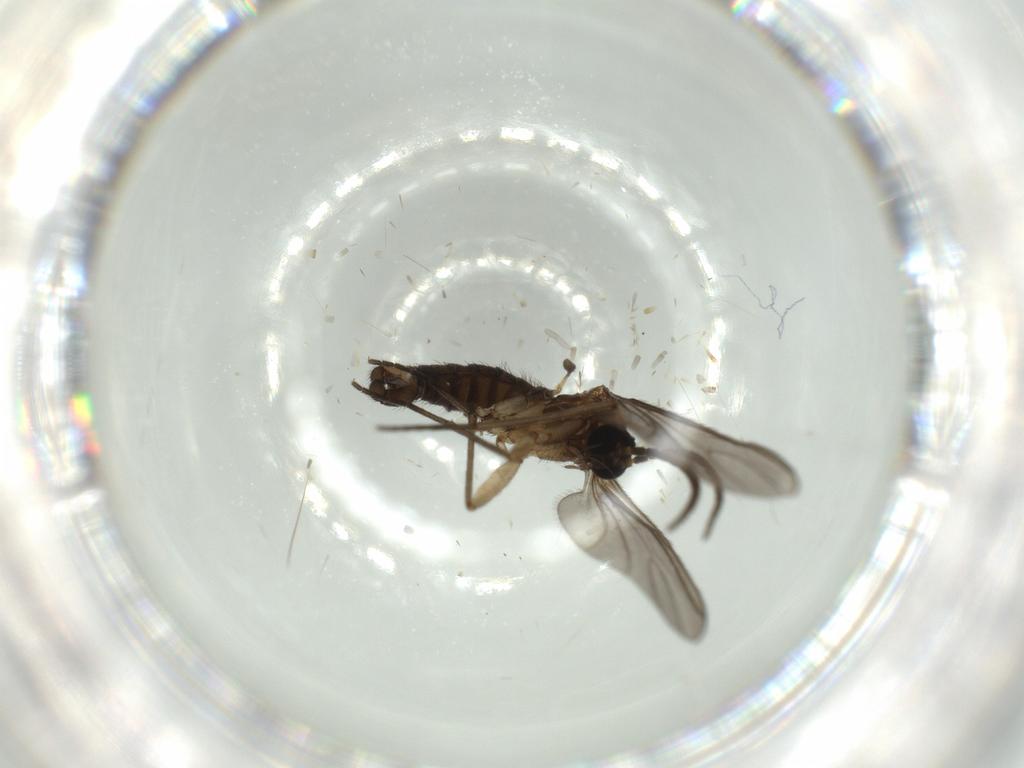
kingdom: Animalia
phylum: Arthropoda
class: Insecta
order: Diptera
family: Sciaridae
